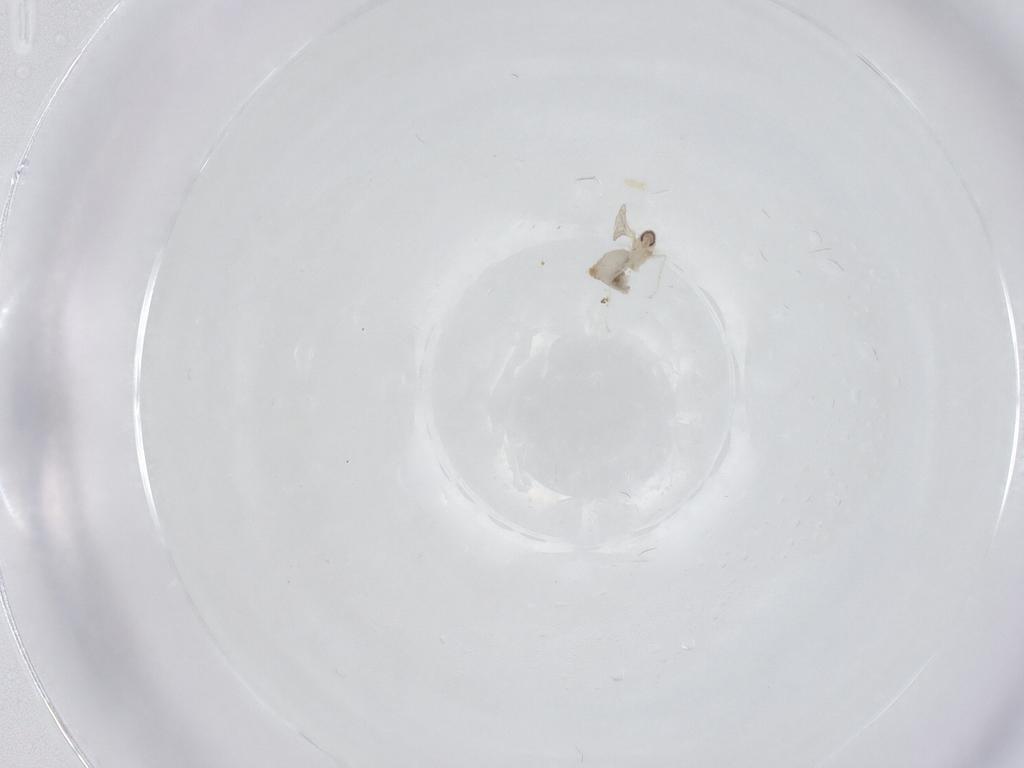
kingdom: Animalia
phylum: Arthropoda
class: Insecta
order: Diptera
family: Cecidomyiidae
